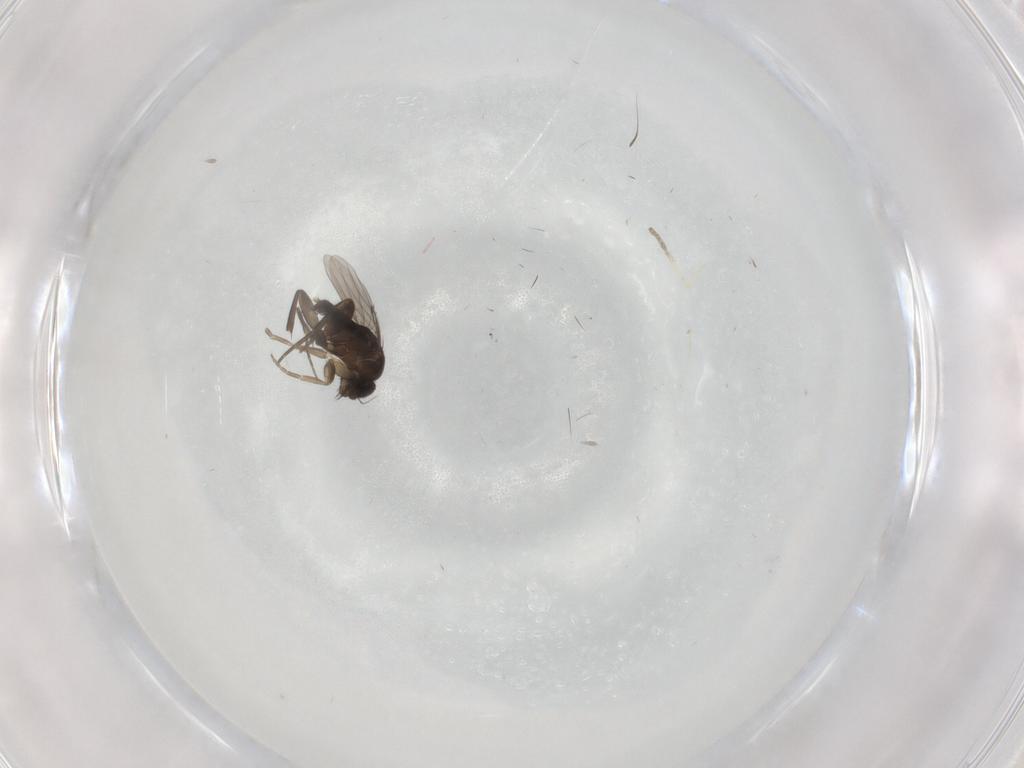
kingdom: Animalia
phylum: Arthropoda
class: Insecta
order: Diptera
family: Phoridae
